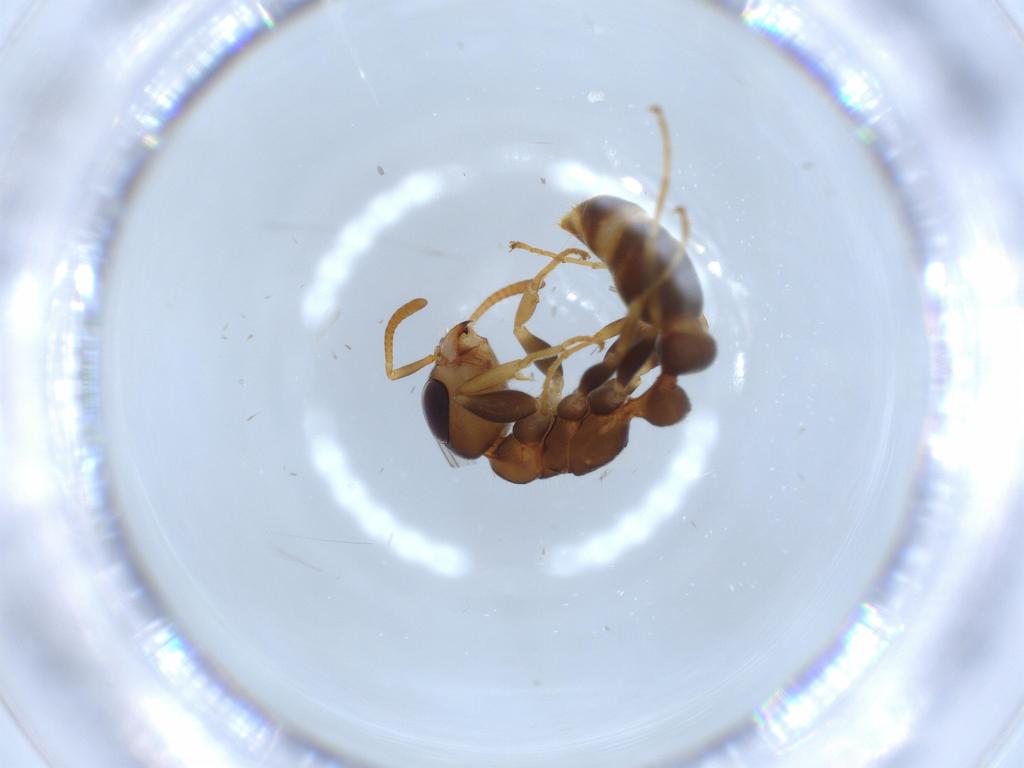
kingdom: Animalia
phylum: Arthropoda
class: Insecta
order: Hymenoptera
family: Formicidae
